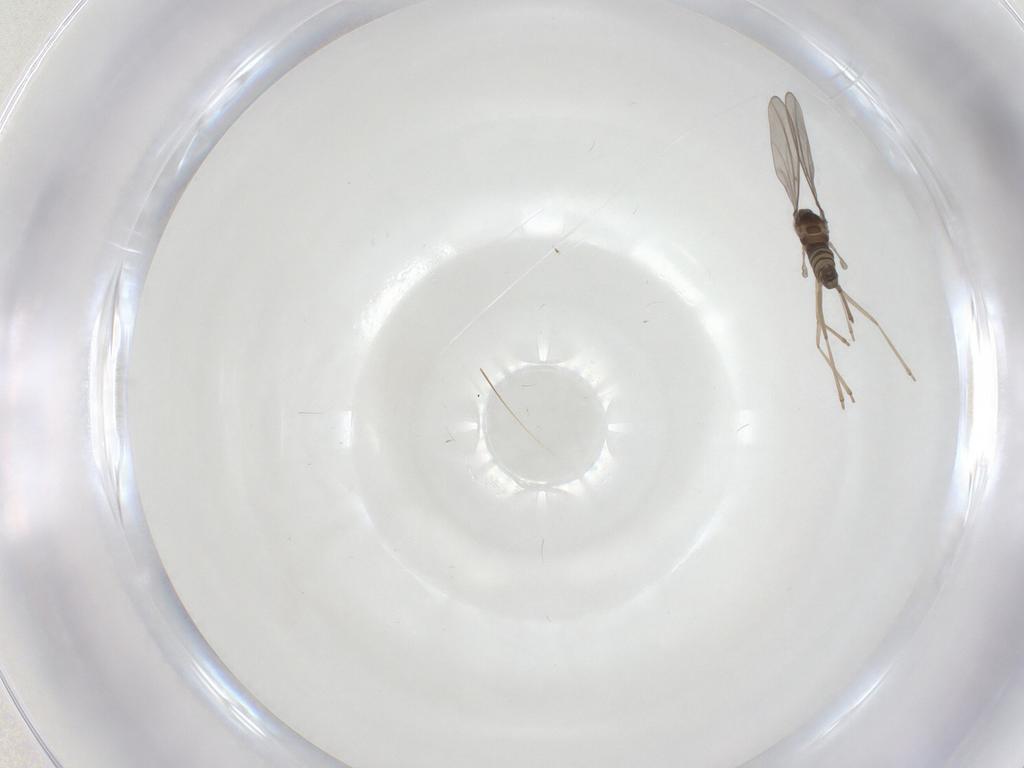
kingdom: Animalia
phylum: Arthropoda
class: Insecta
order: Diptera
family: Cecidomyiidae
